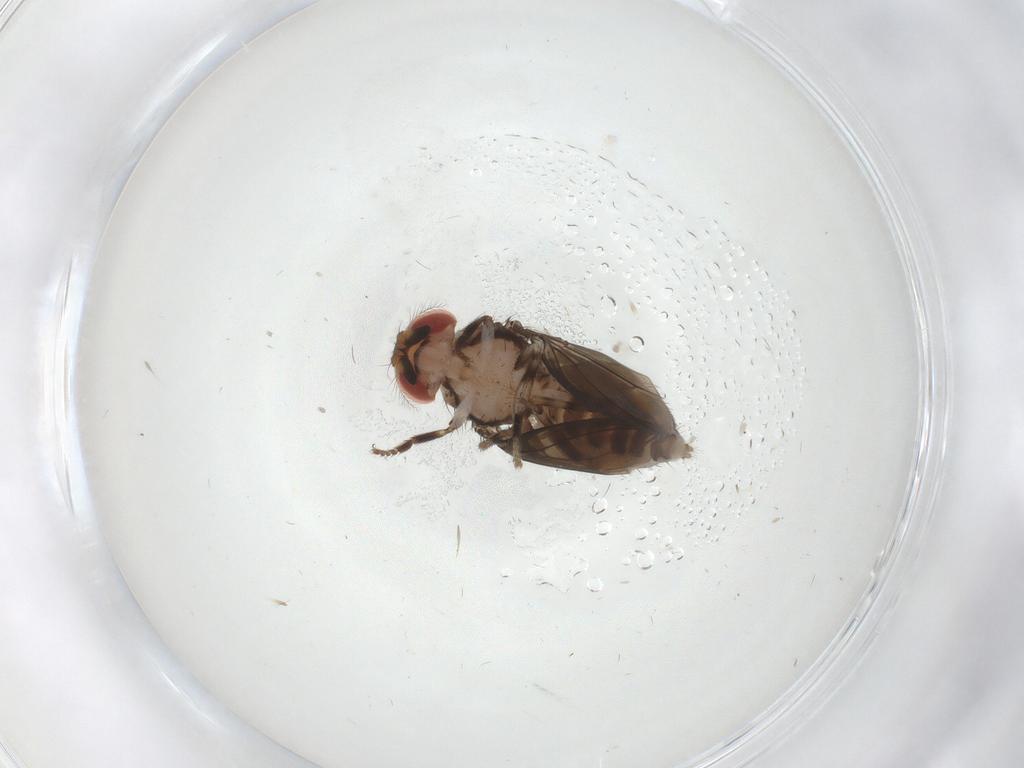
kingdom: Animalia
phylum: Arthropoda
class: Insecta
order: Diptera
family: Drosophilidae
